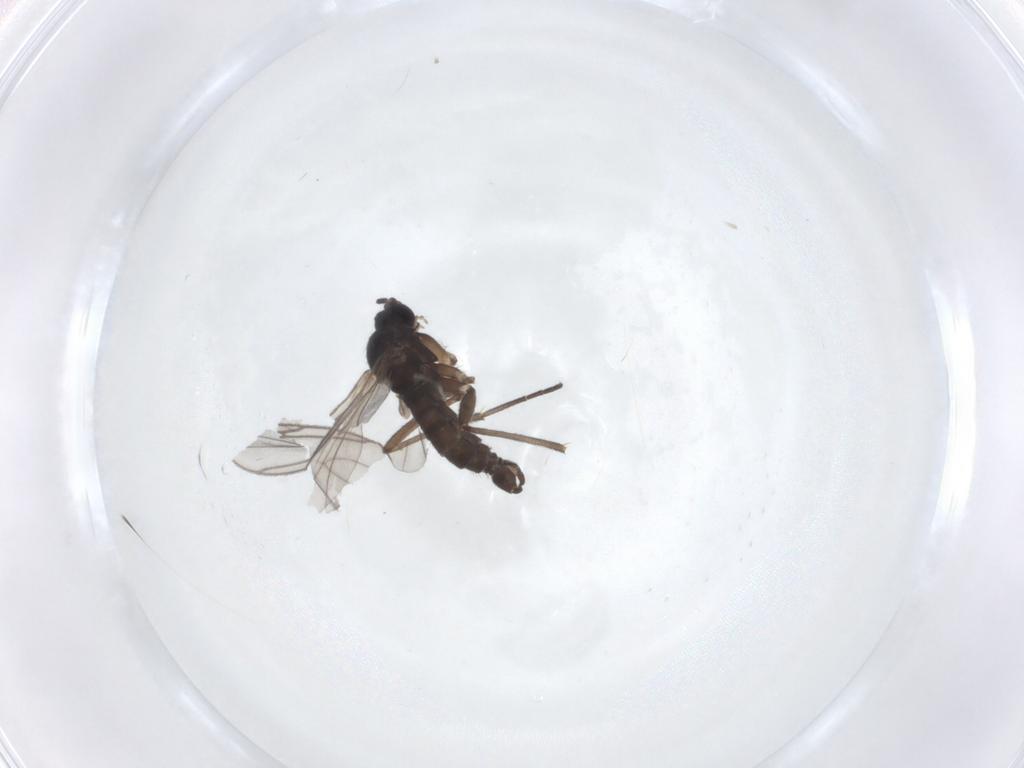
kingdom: Animalia
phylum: Arthropoda
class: Insecta
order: Diptera
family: Sciaridae
